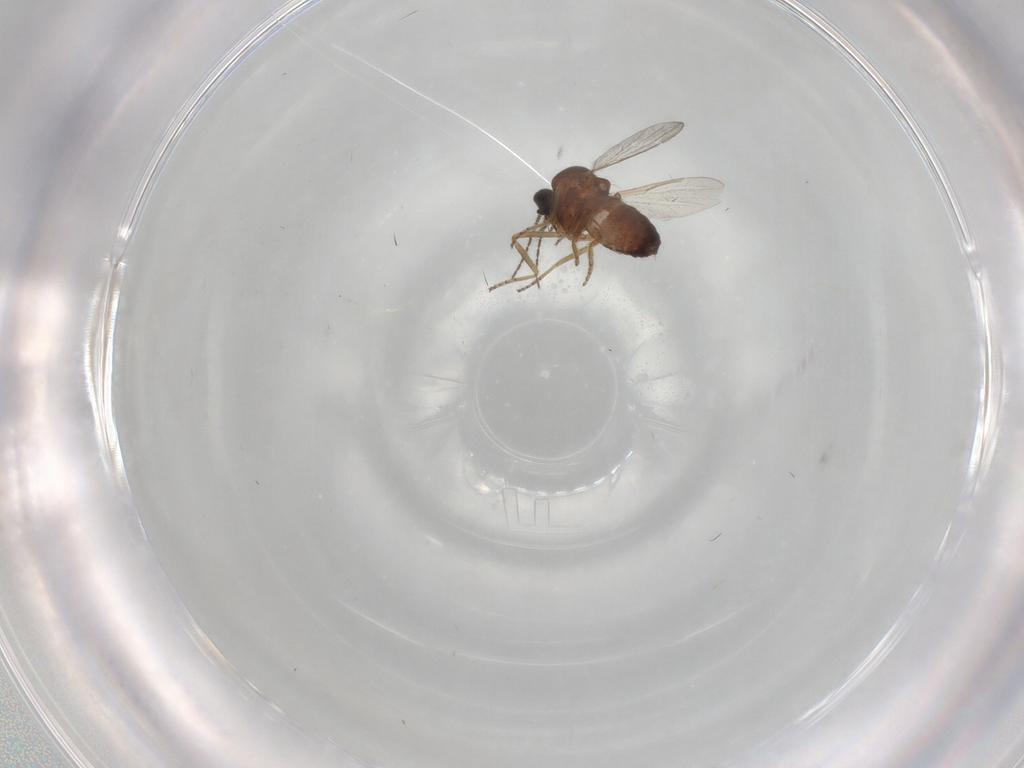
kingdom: Animalia
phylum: Arthropoda
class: Insecta
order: Diptera
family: Ceratopogonidae
